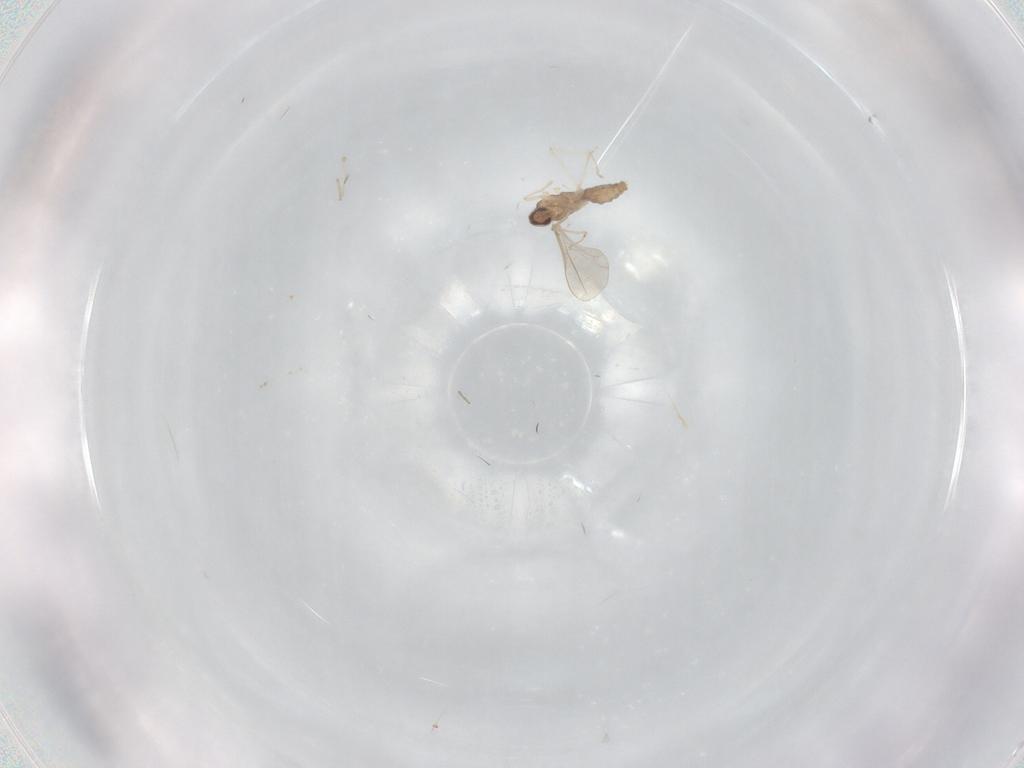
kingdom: Animalia
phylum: Arthropoda
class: Insecta
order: Diptera
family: Cecidomyiidae
